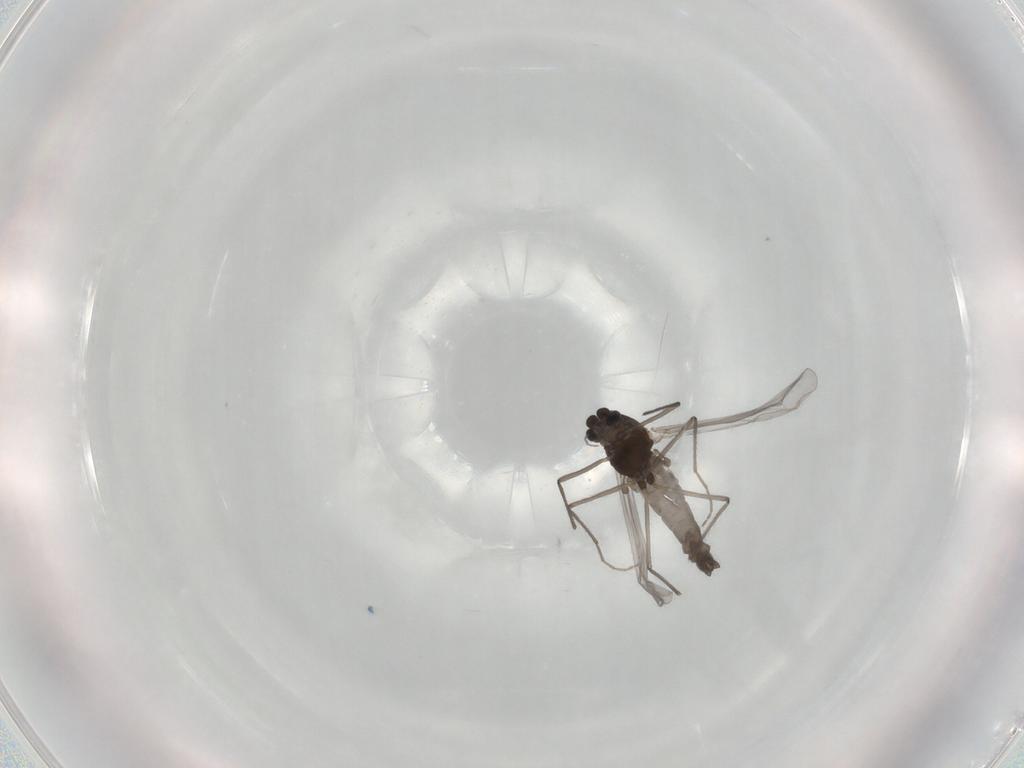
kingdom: Animalia
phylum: Arthropoda
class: Insecta
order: Diptera
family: Chironomidae
